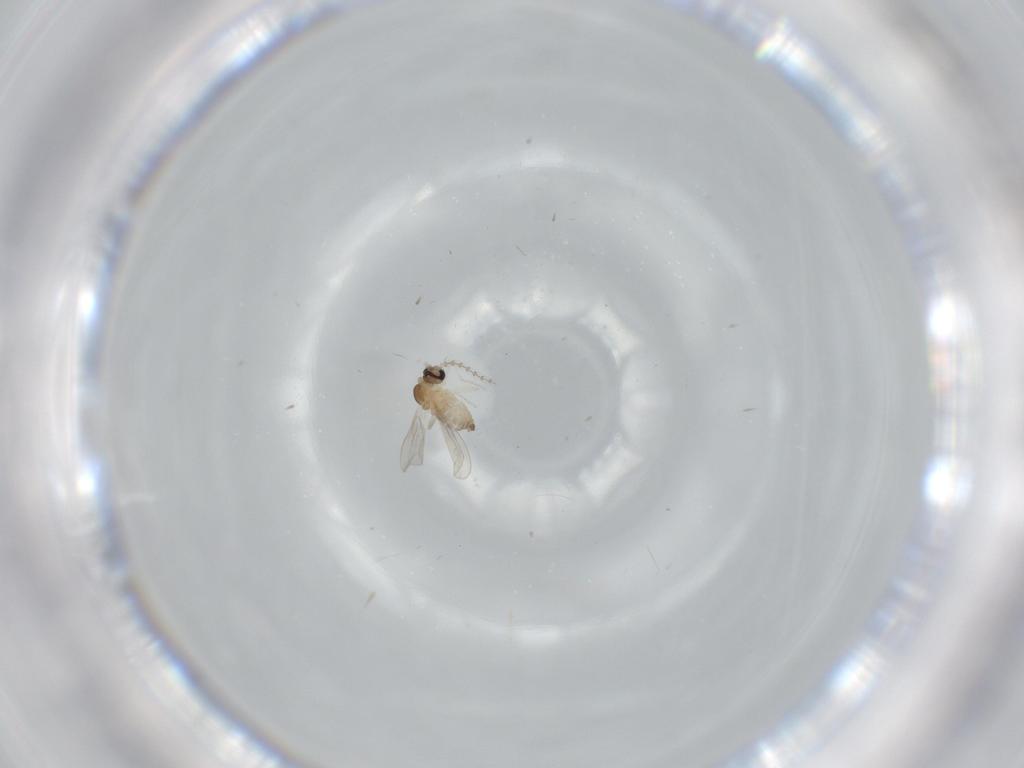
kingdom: Animalia
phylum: Arthropoda
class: Insecta
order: Diptera
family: Cecidomyiidae
